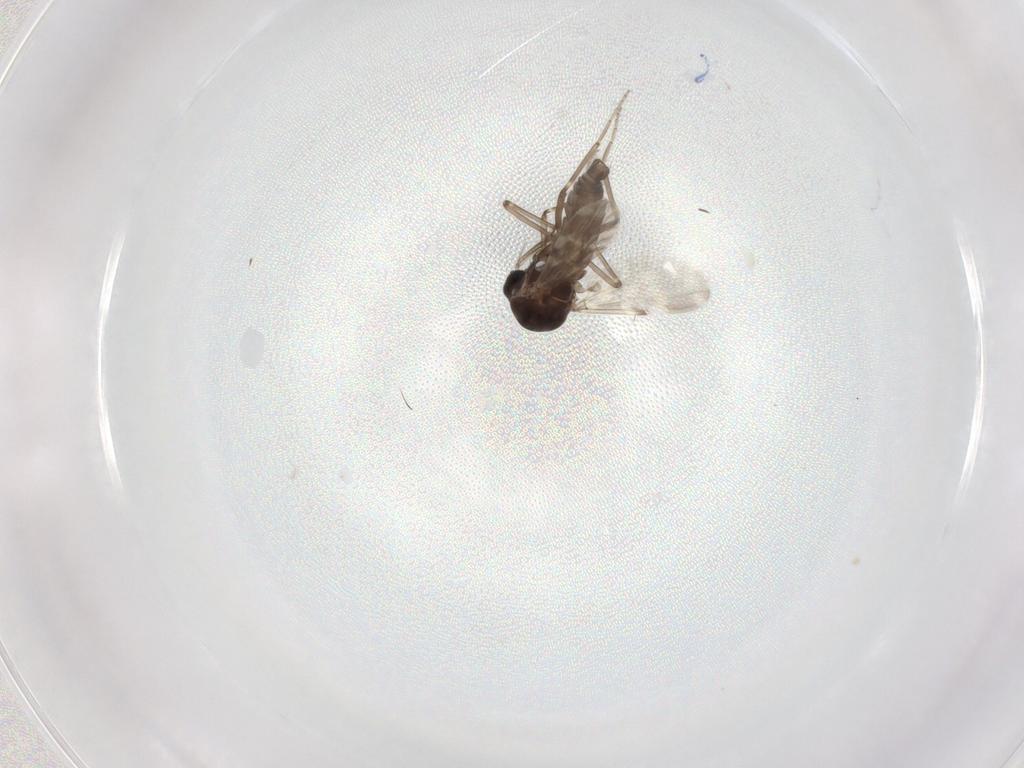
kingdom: Animalia
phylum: Arthropoda
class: Insecta
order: Diptera
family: Ceratopogonidae
